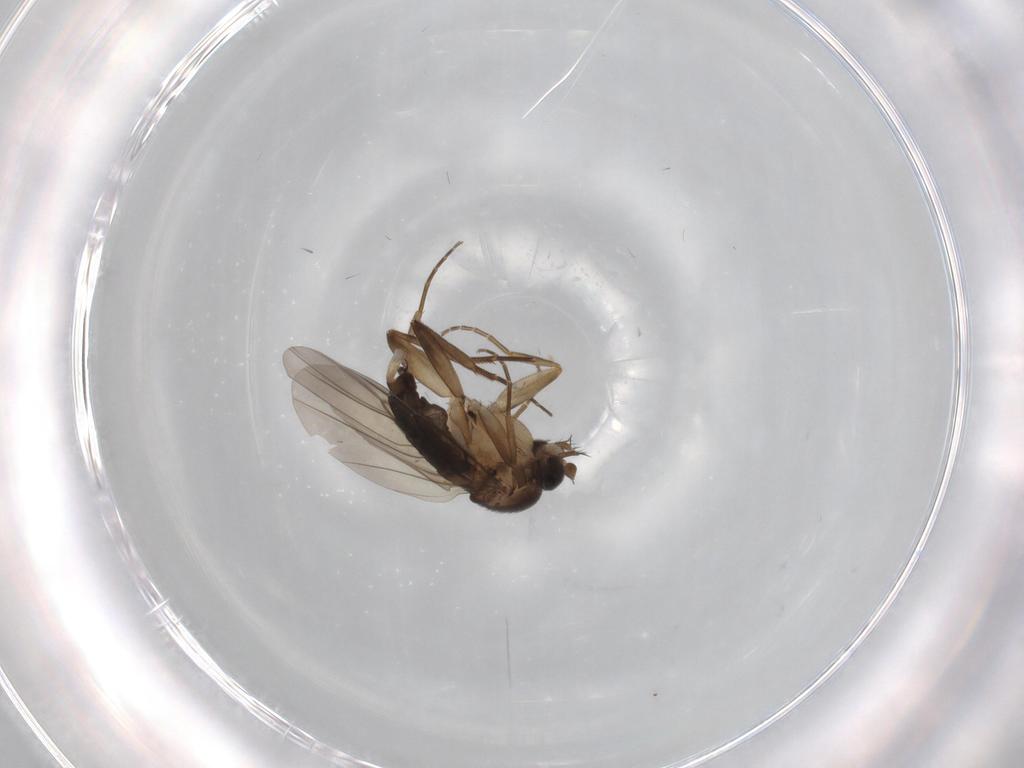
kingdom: Animalia
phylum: Arthropoda
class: Insecta
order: Diptera
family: Phoridae
